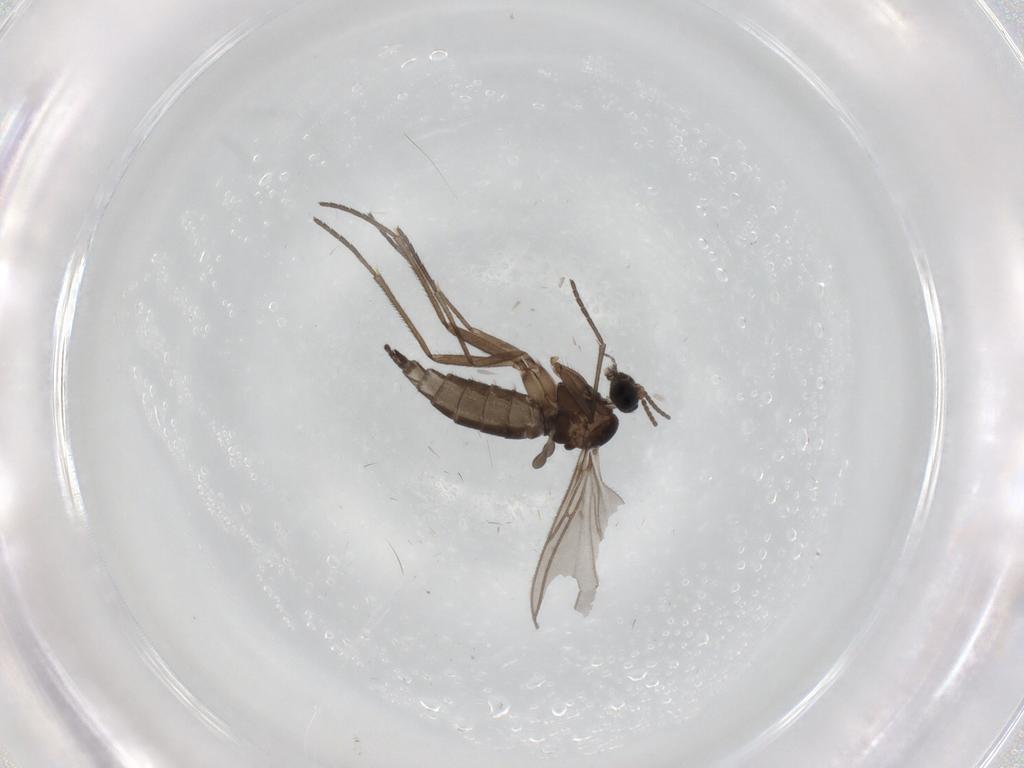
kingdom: Animalia
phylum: Arthropoda
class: Insecta
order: Diptera
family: Sciaridae
